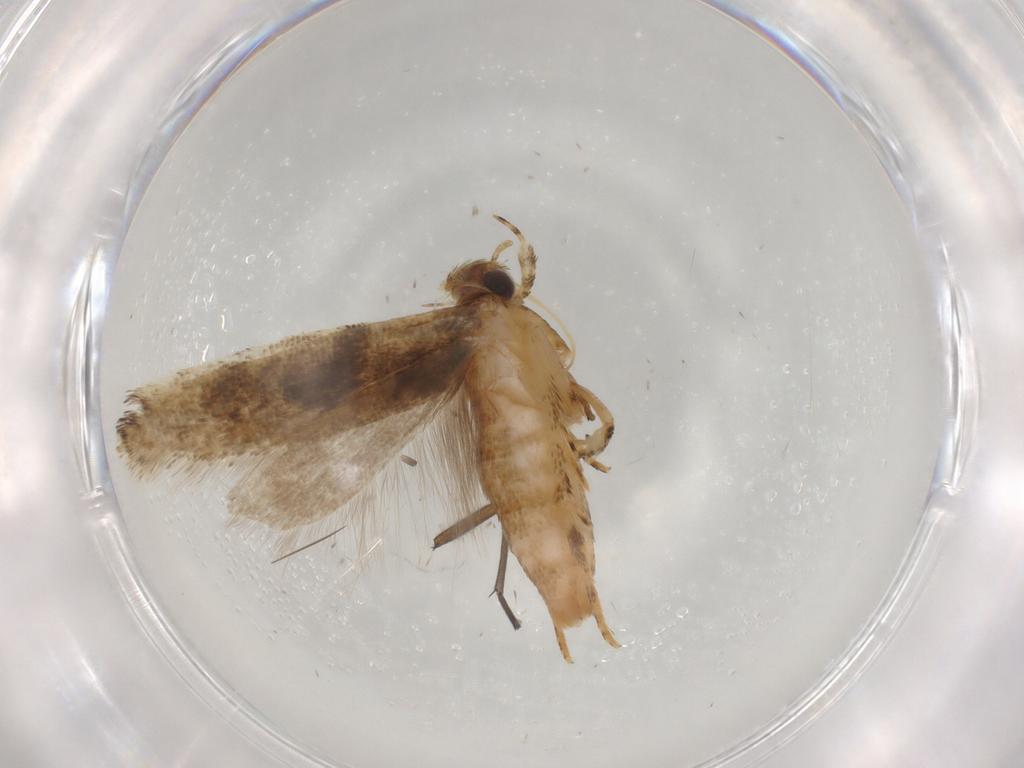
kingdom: Animalia
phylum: Arthropoda
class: Insecta
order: Lepidoptera
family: Gelechiidae
